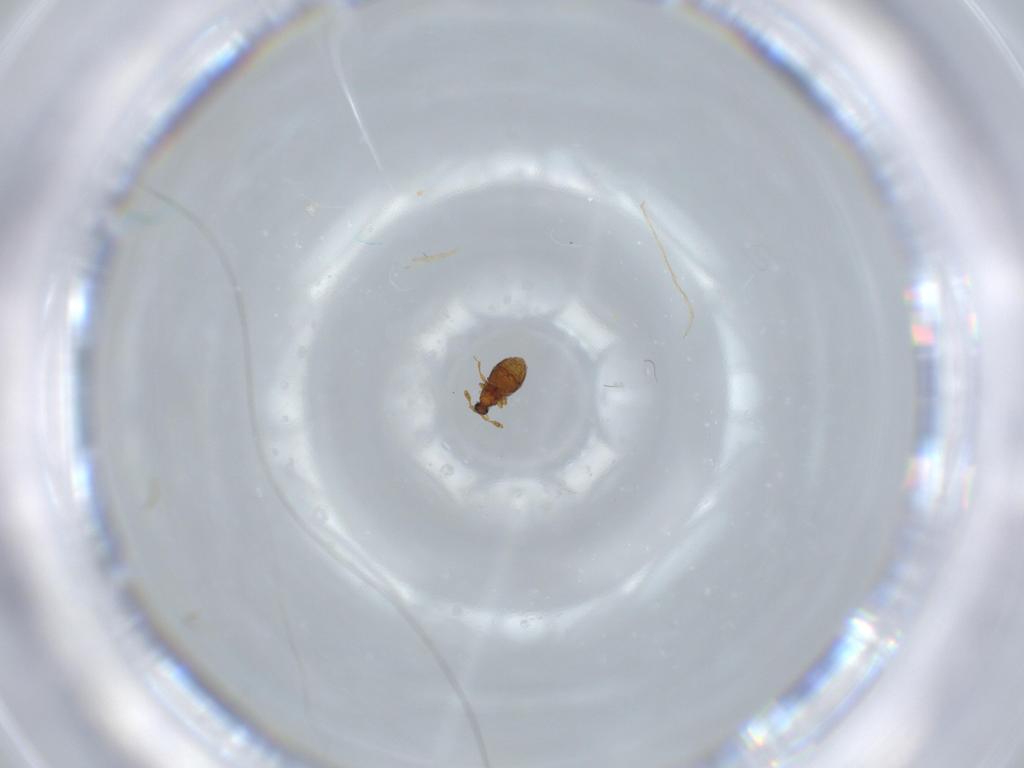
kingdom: Animalia
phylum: Arthropoda
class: Insecta
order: Coleoptera
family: Staphylinidae
